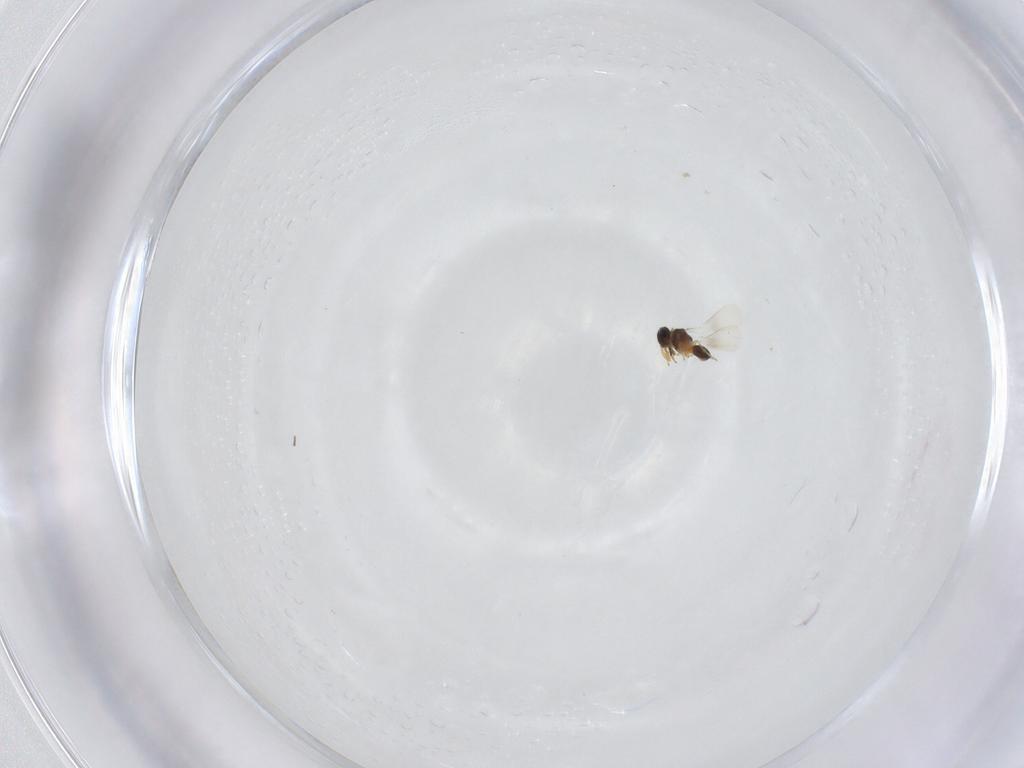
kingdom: Animalia
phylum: Arthropoda
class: Insecta
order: Hymenoptera
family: Platygastridae
